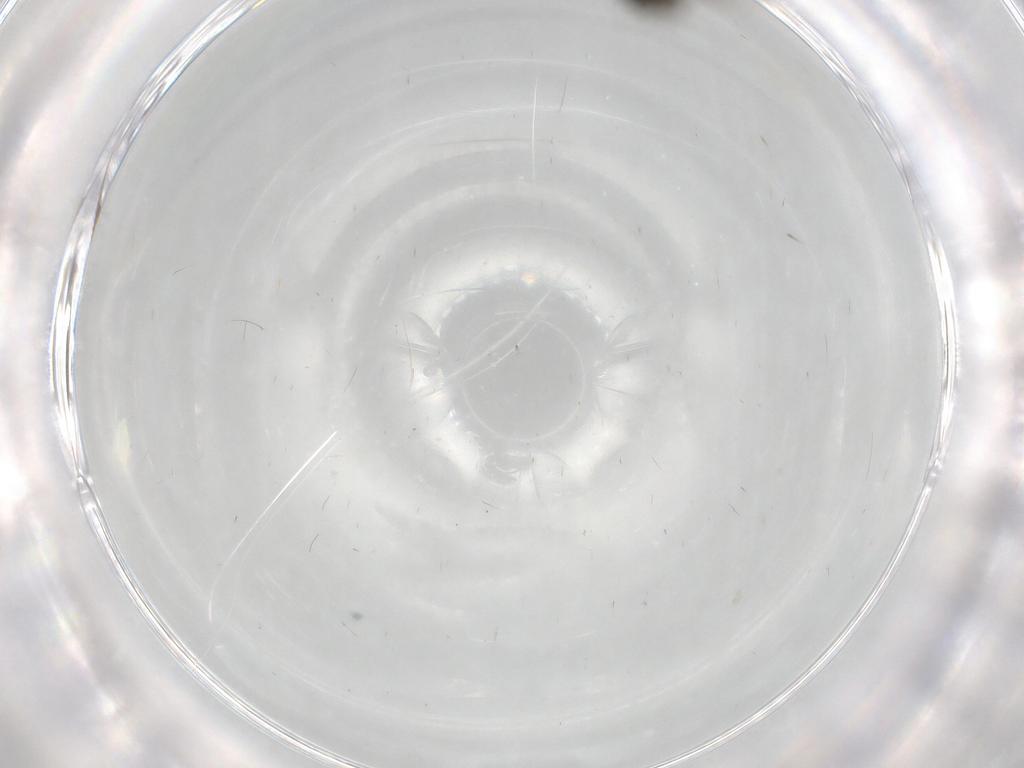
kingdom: Animalia
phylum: Arthropoda
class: Insecta
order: Hymenoptera
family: Bethylidae
